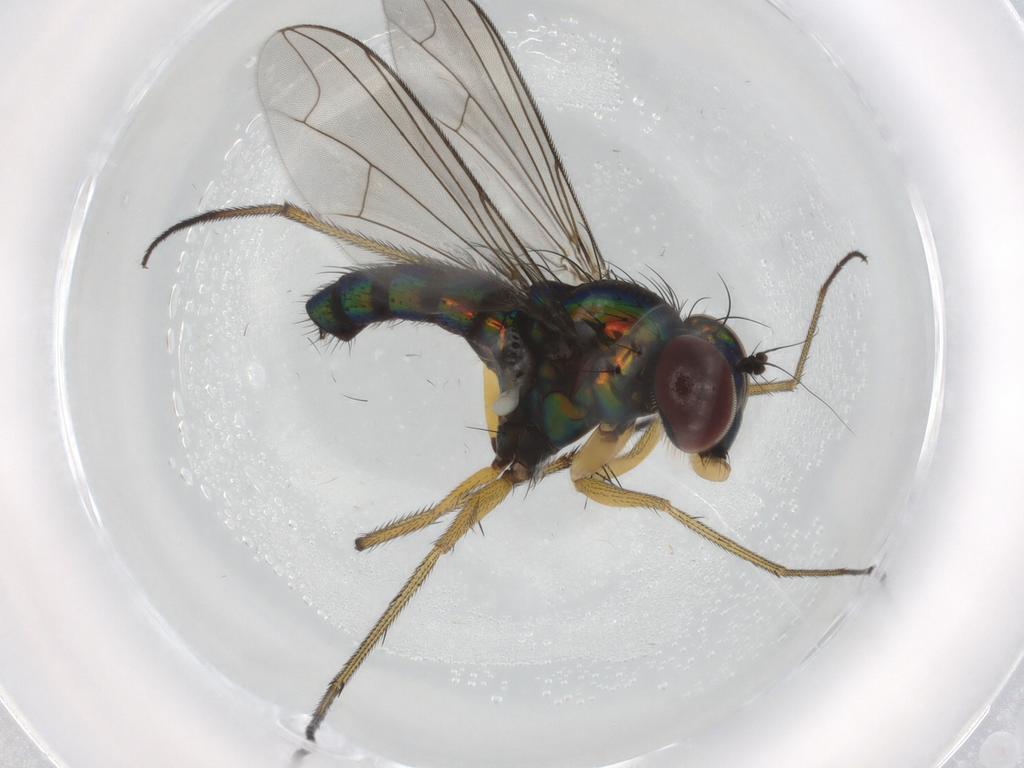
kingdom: Animalia
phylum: Arthropoda
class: Insecta
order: Diptera
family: Dolichopodidae
